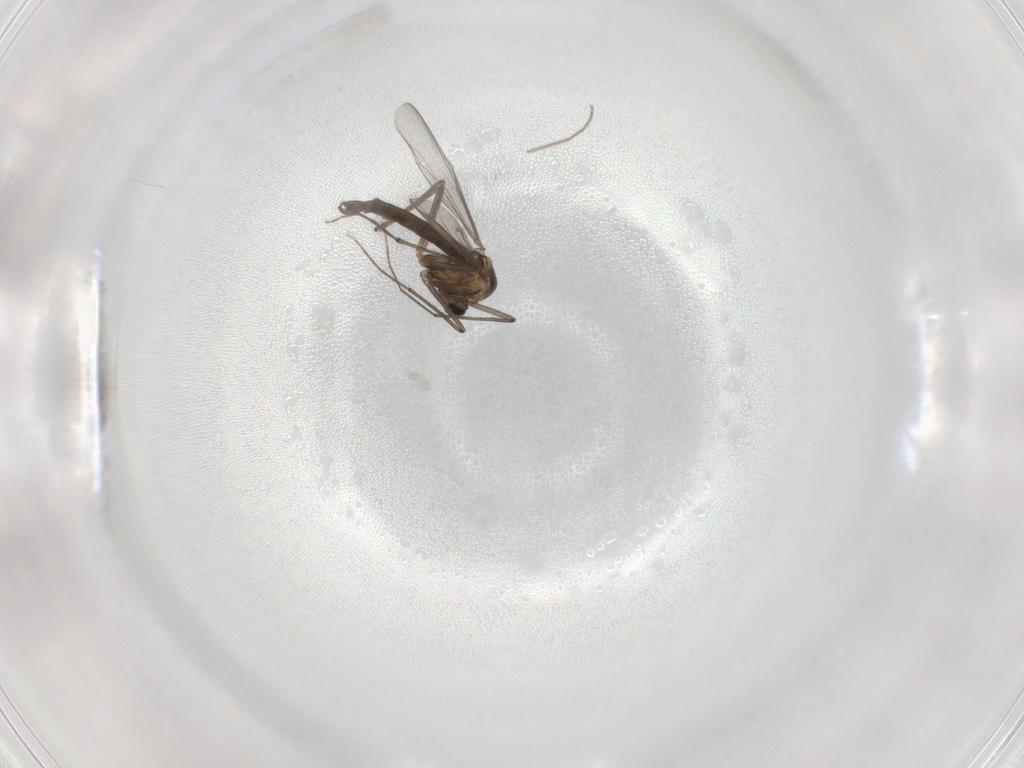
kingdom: Animalia
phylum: Arthropoda
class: Insecta
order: Diptera
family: Chironomidae
